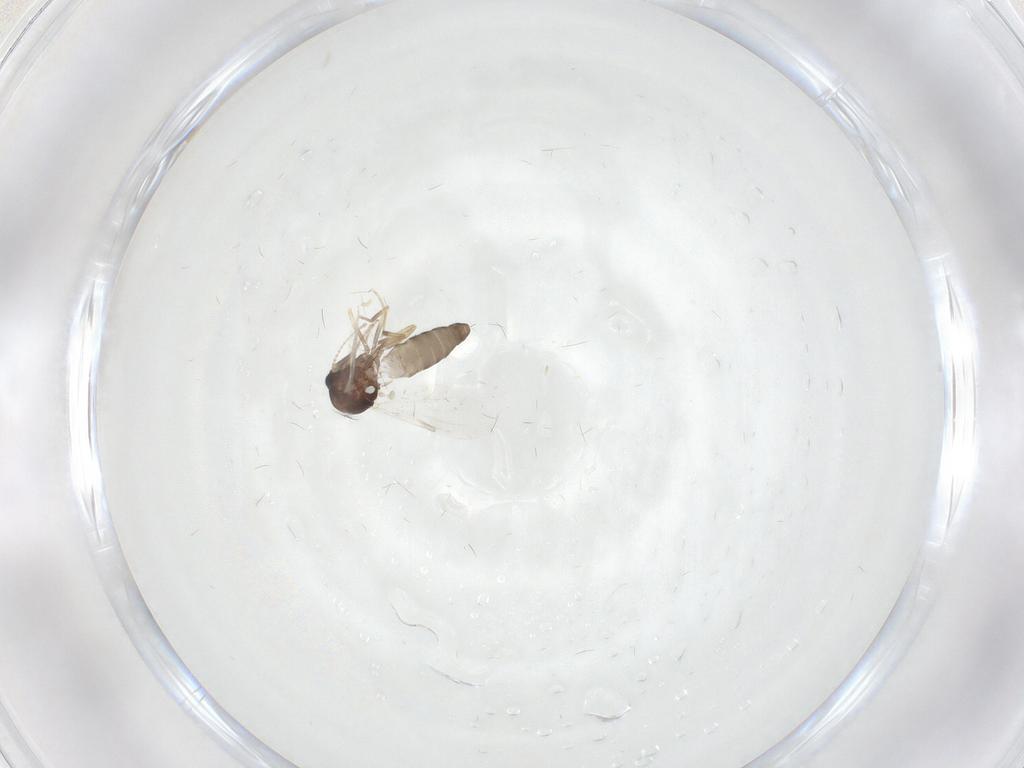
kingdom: Animalia
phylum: Arthropoda
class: Insecta
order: Diptera
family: Ceratopogonidae
